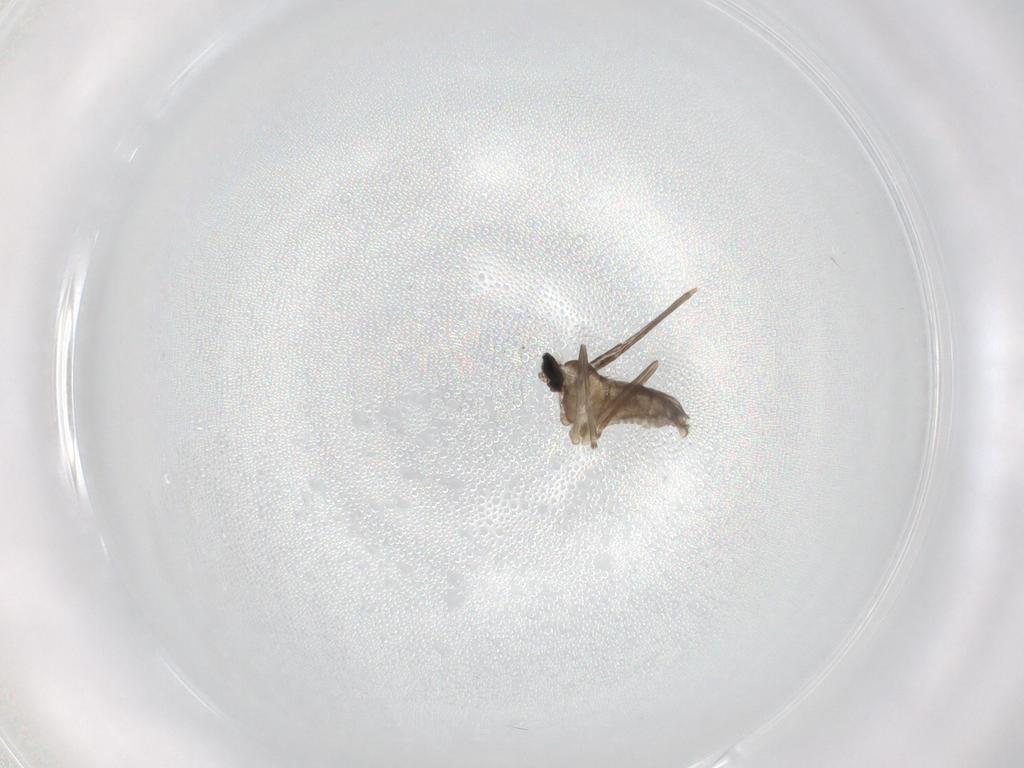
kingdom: Animalia
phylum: Arthropoda
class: Insecta
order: Diptera
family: Cecidomyiidae
